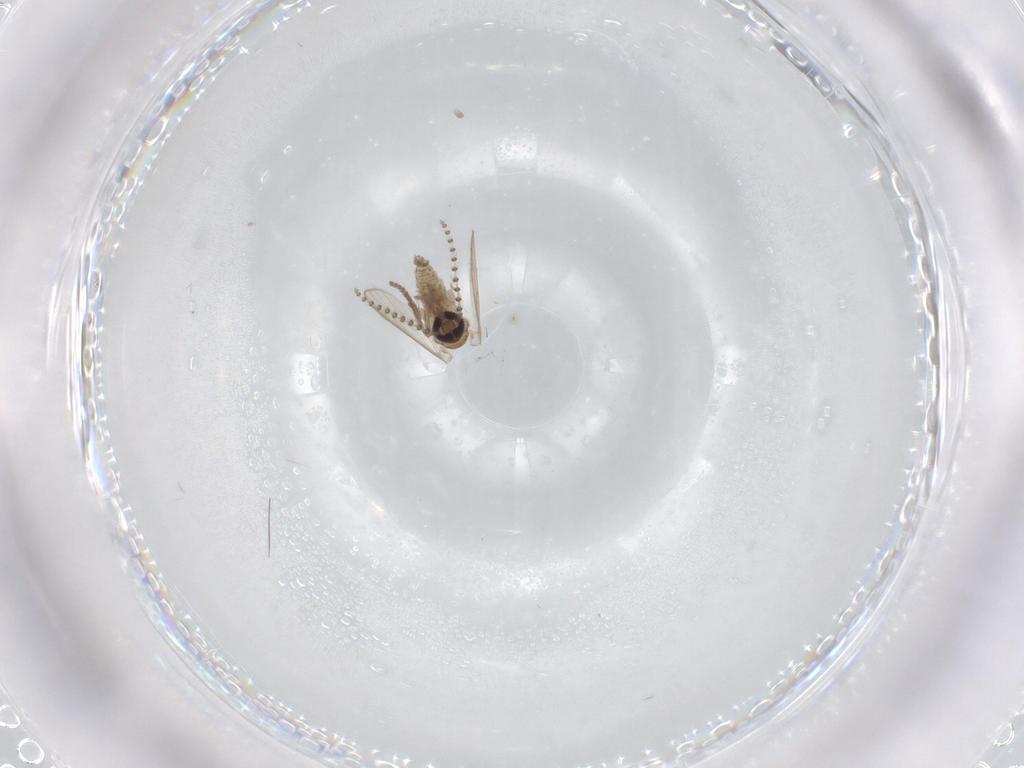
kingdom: Animalia
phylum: Arthropoda
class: Insecta
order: Diptera
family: Psychodidae
